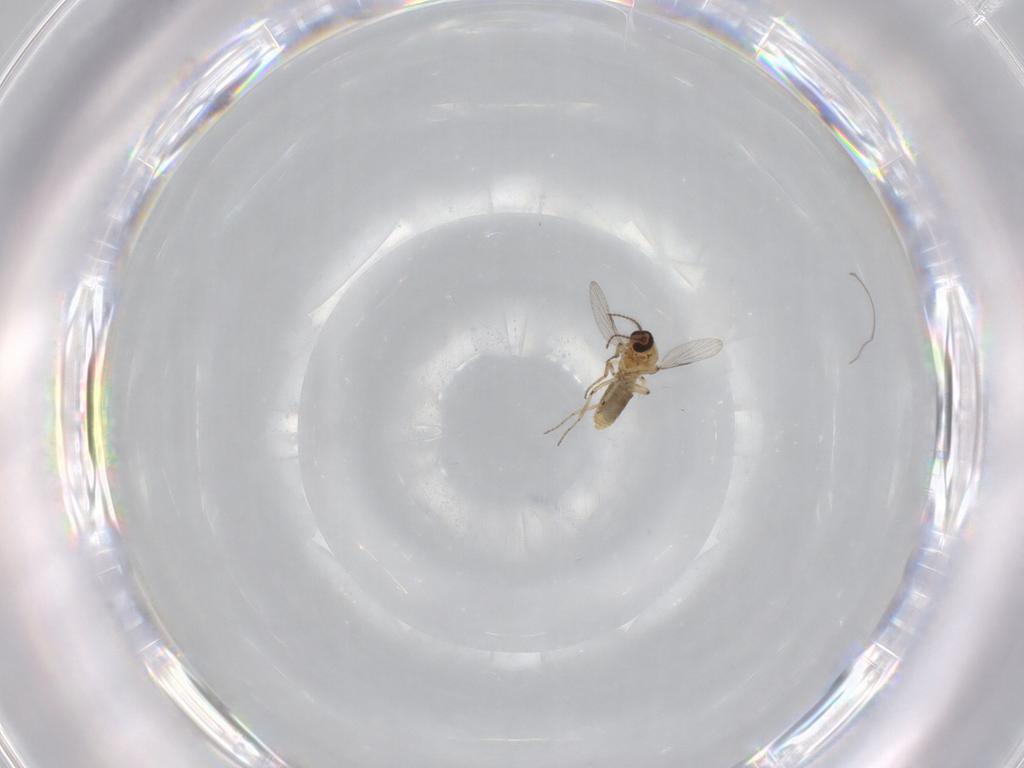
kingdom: Animalia
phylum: Arthropoda
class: Insecta
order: Diptera
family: Ceratopogonidae
